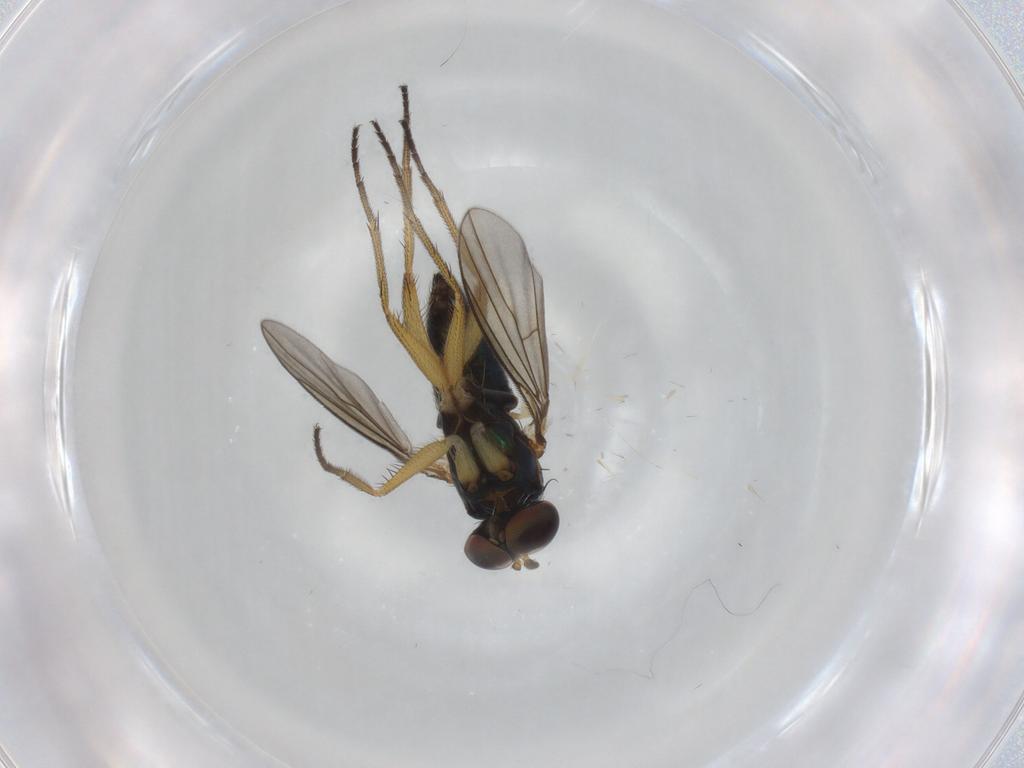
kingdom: Animalia
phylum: Arthropoda
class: Insecta
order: Diptera
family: Dolichopodidae
